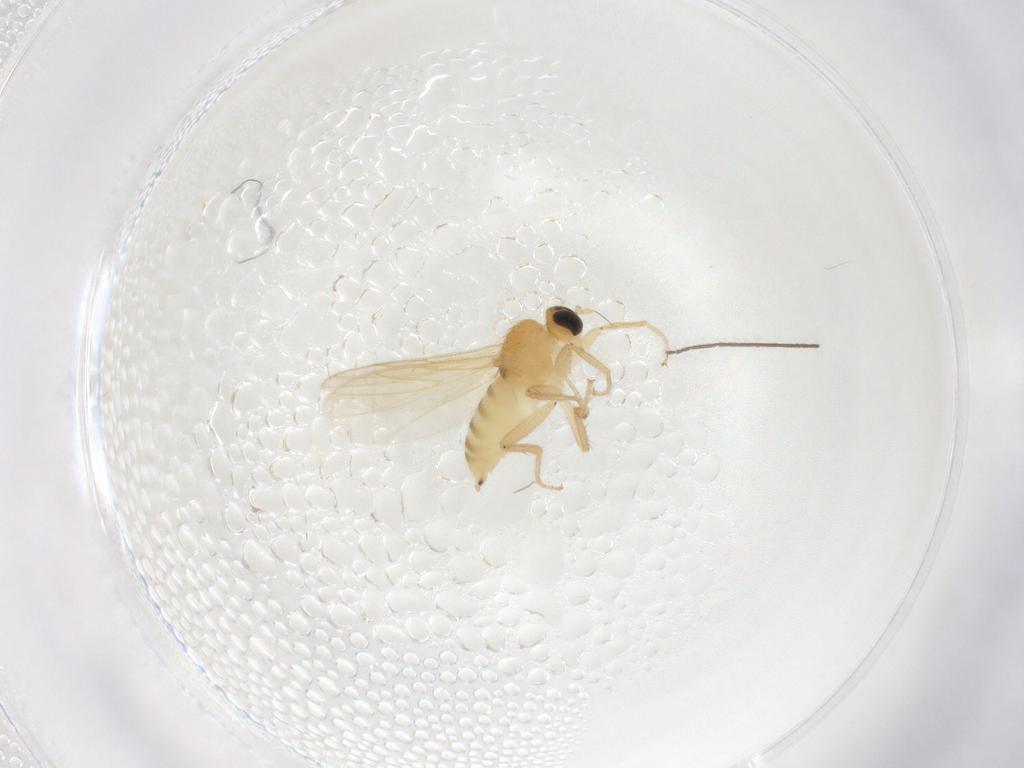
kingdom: Animalia
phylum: Arthropoda
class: Insecta
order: Diptera
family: Hybotidae
